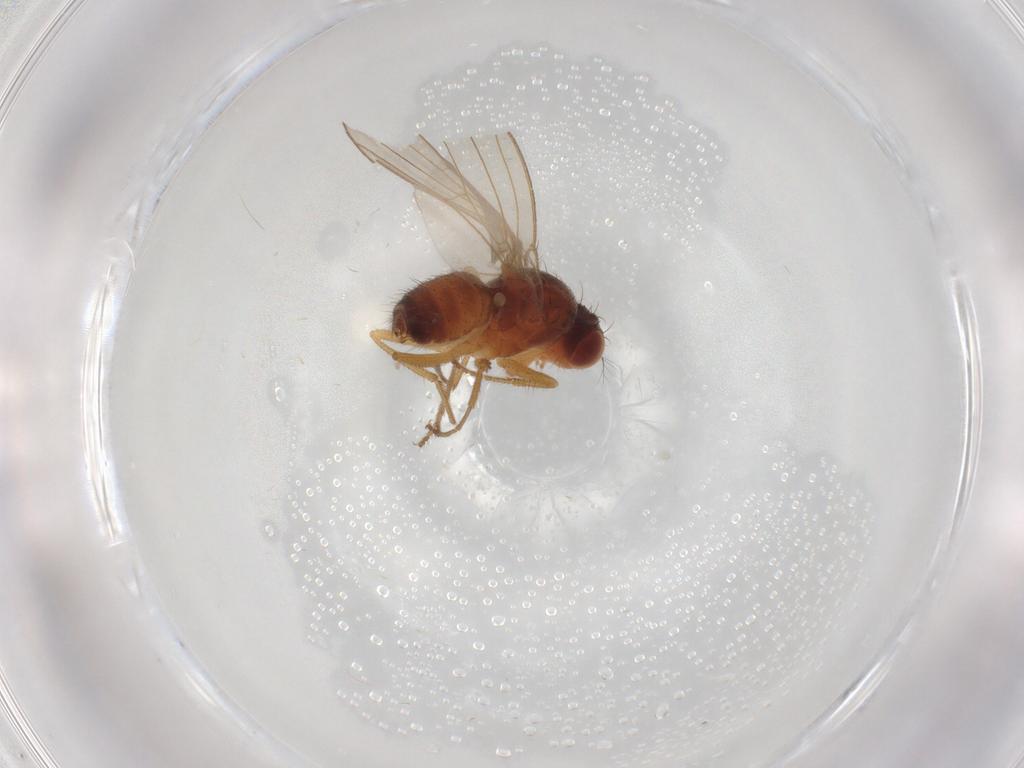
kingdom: Animalia
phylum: Arthropoda
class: Insecta
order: Diptera
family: Drosophilidae
